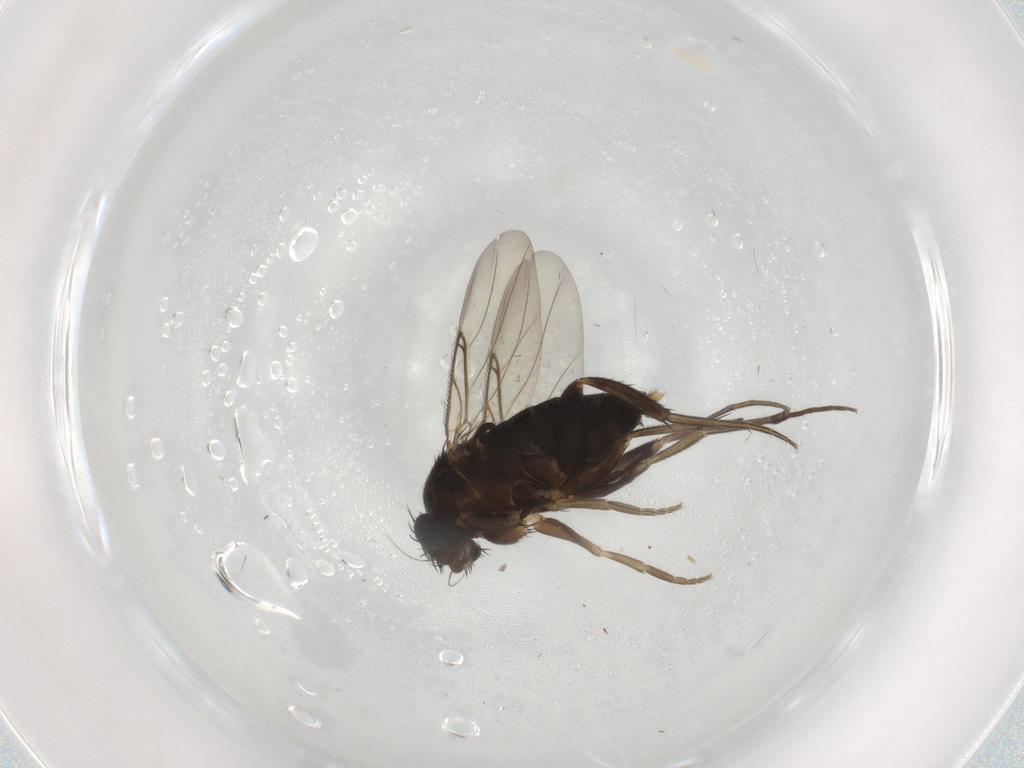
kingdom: Animalia
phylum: Arthropoda
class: Insecta
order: Diptera
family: Phoridae
